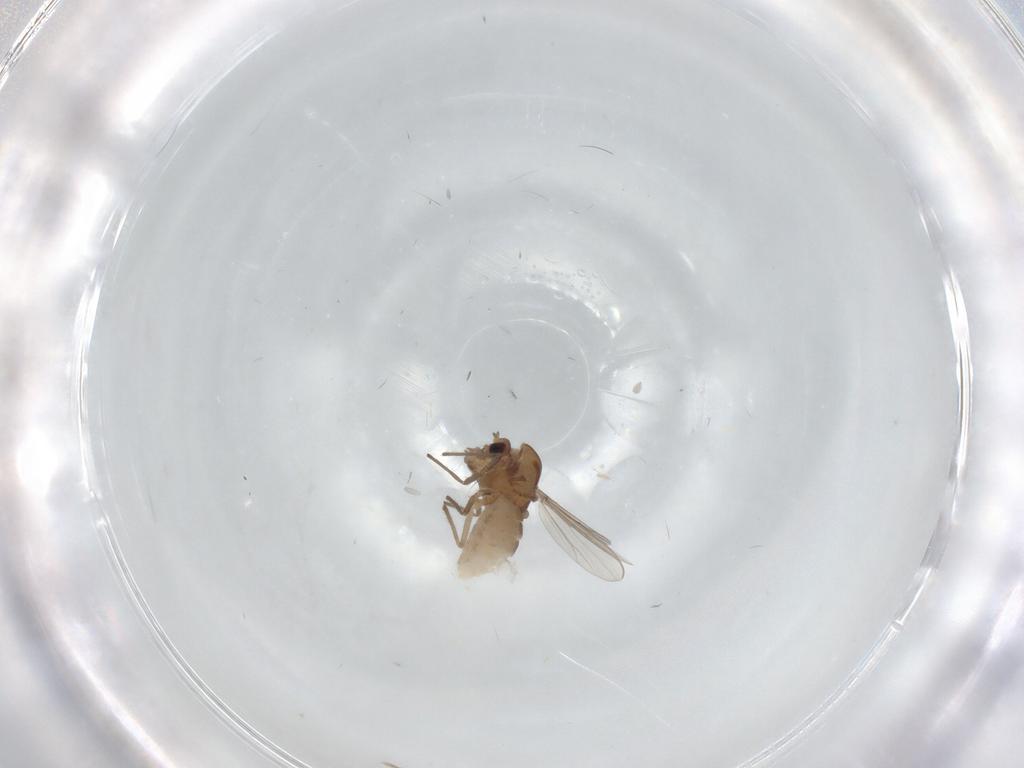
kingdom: Animalia
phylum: Arthropoda
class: Insecta
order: Diptera
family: Chironomidae
